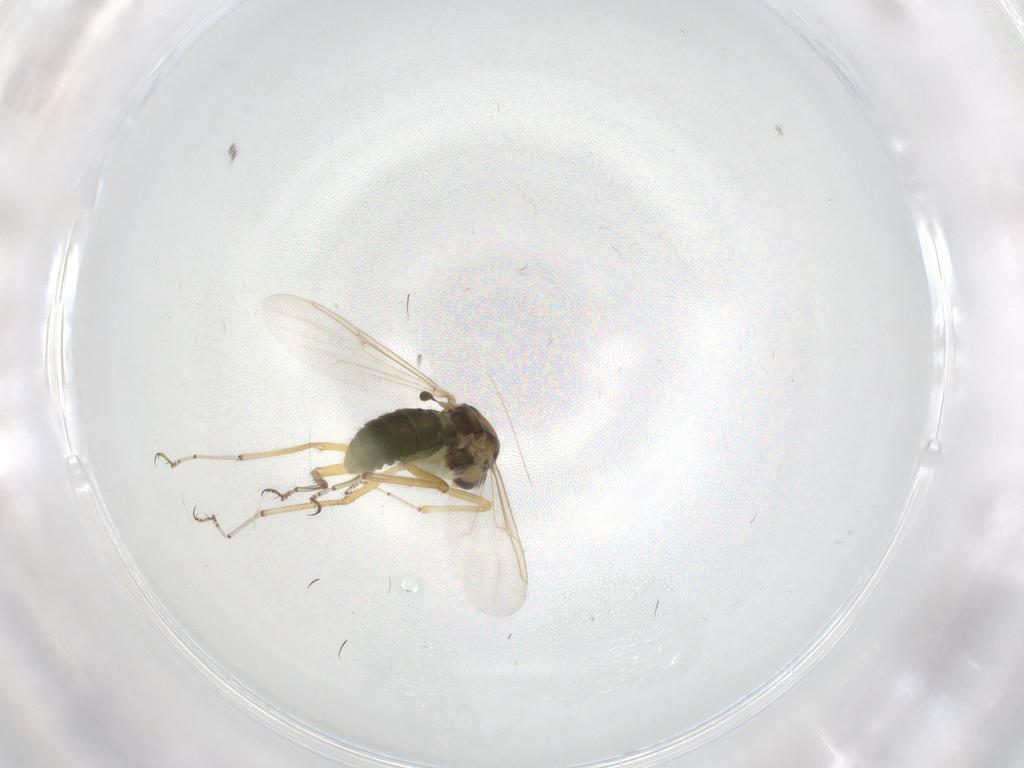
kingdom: Animalia
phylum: Arthropoda
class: Insecta
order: Diptera
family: Ceratopogonidae
